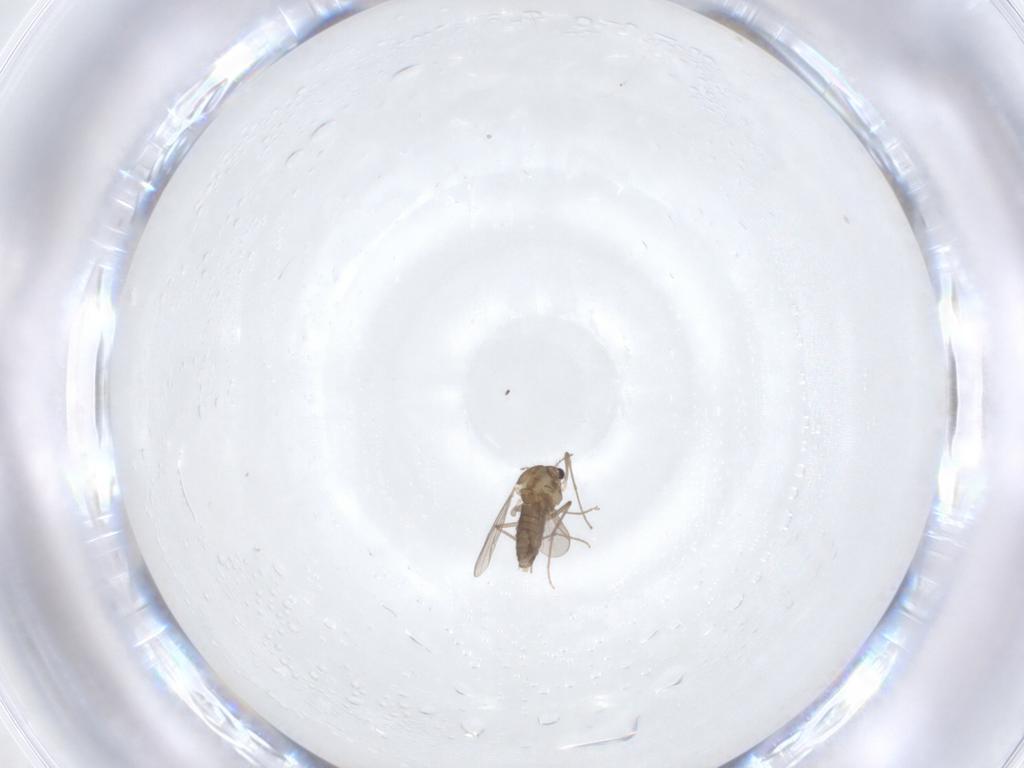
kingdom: Animalia
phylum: Arthropoda
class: Insecta
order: Diptera
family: Chironomidae
